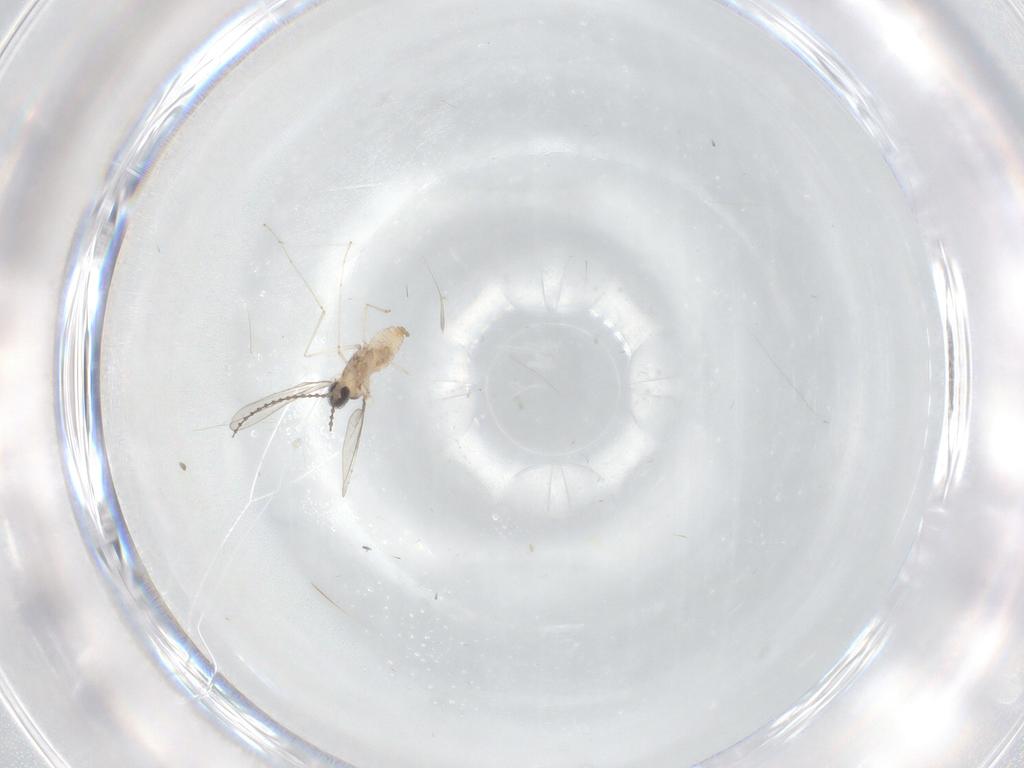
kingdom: Animalia
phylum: Arthropoda
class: Insecta
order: Diptera
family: Cecidomyiidae
